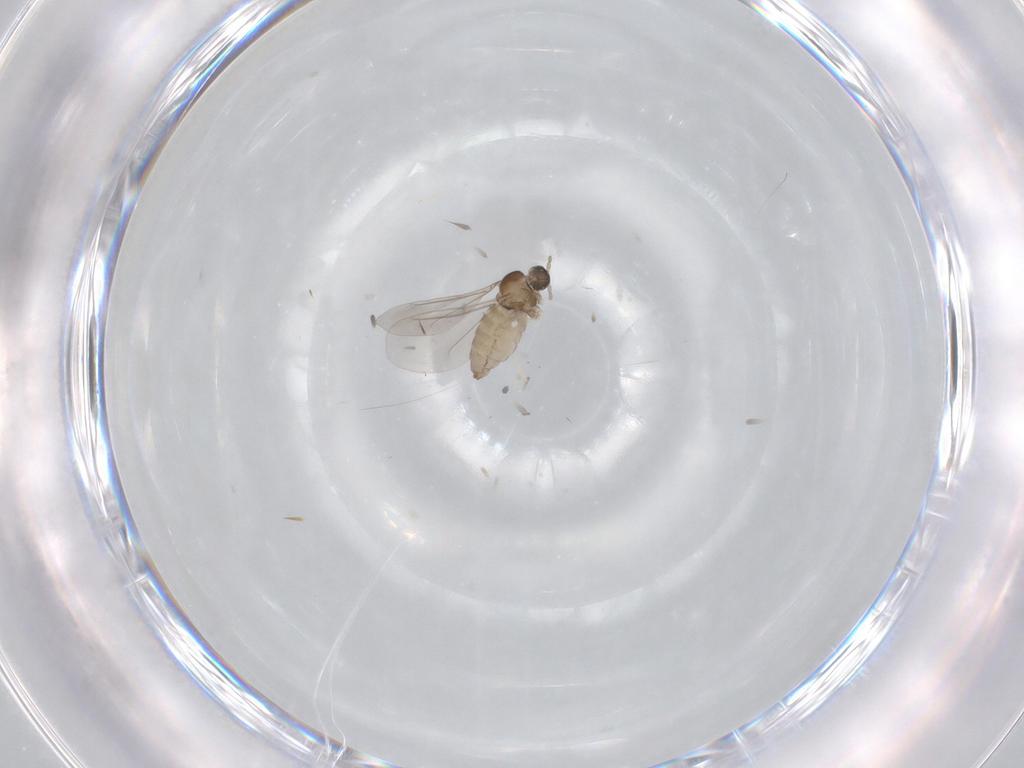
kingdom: Animalia
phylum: Arthropoda
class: Insecta
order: Diptera
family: Cecidomyiidae
